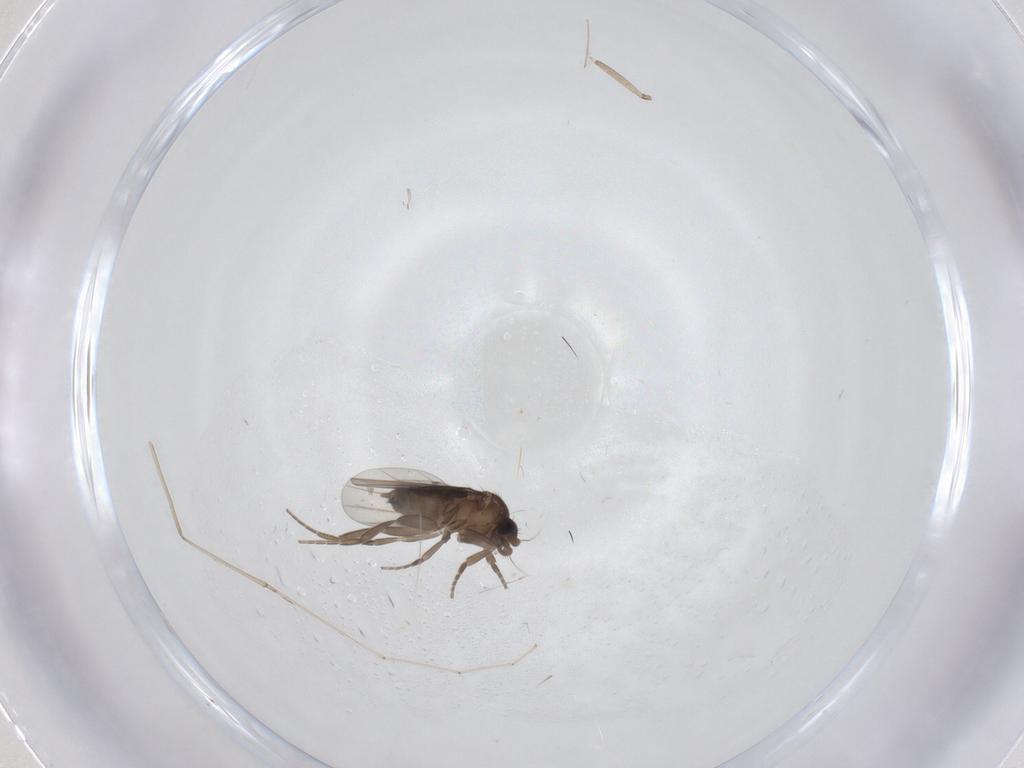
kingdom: Animalia
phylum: Arthropoda
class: Insecta
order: Diptera
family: Phoridae
